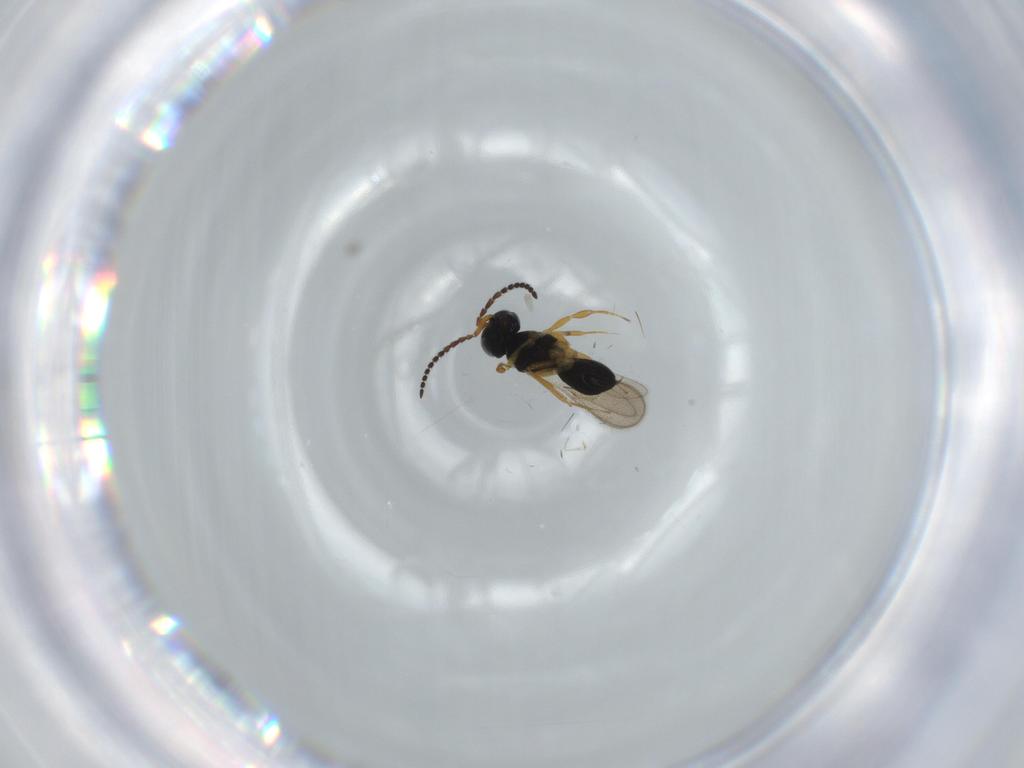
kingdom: Animalia
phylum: Arthropoda
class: Insecta
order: Hymenoptera
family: Scelionidae
